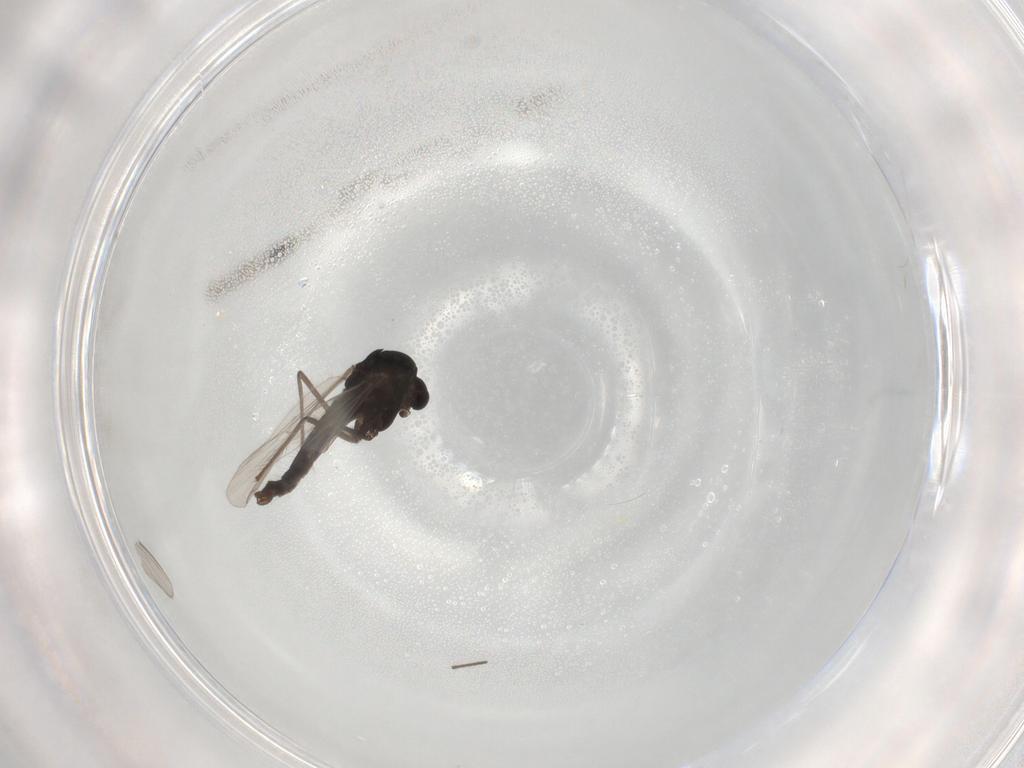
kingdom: Animalia
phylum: Arthropoda
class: Insecta
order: Diptera
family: Chironomidae
